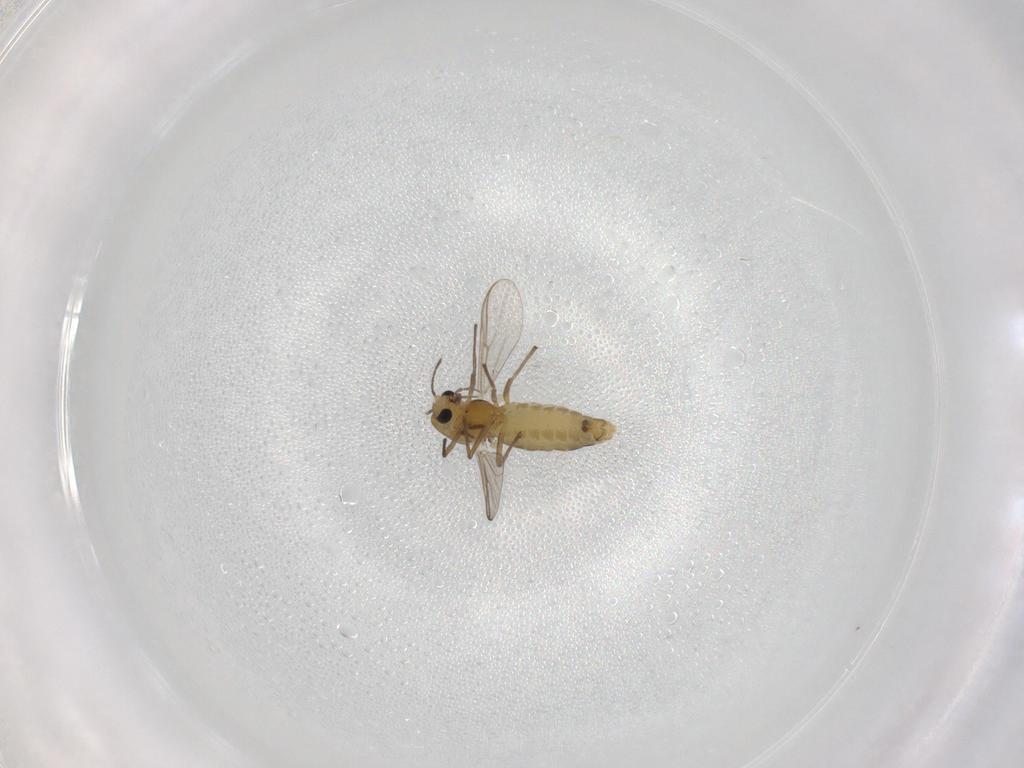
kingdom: Animalia
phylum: Arthropoda
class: Insecta
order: Diptera
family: Chironomidae
